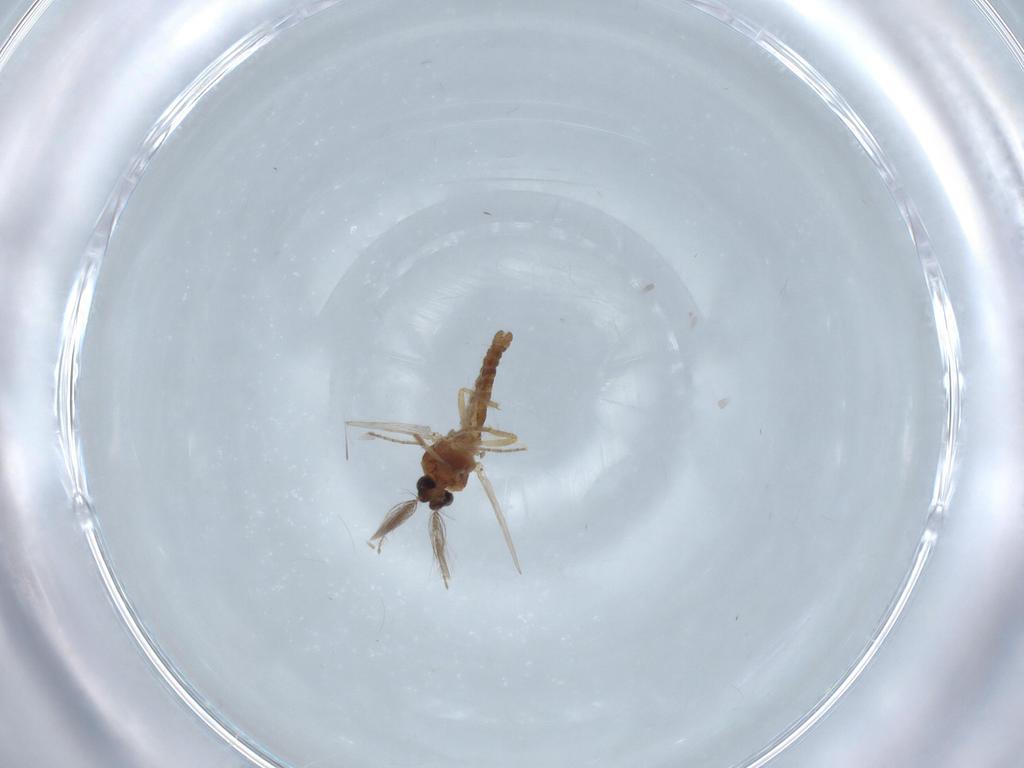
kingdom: Animalia
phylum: Arthropoda
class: Insecta
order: Diptera
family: Ceratopogonidae
